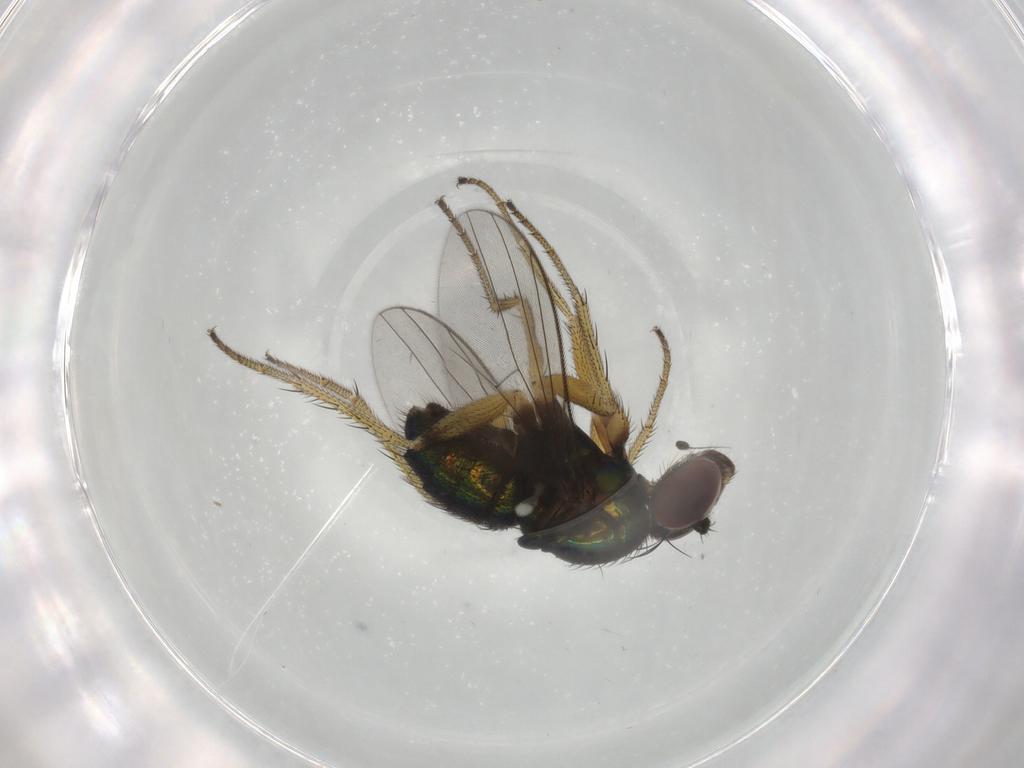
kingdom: Animalia
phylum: Arthropoda
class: Insecta
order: Diptera
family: Dolichopodidae
